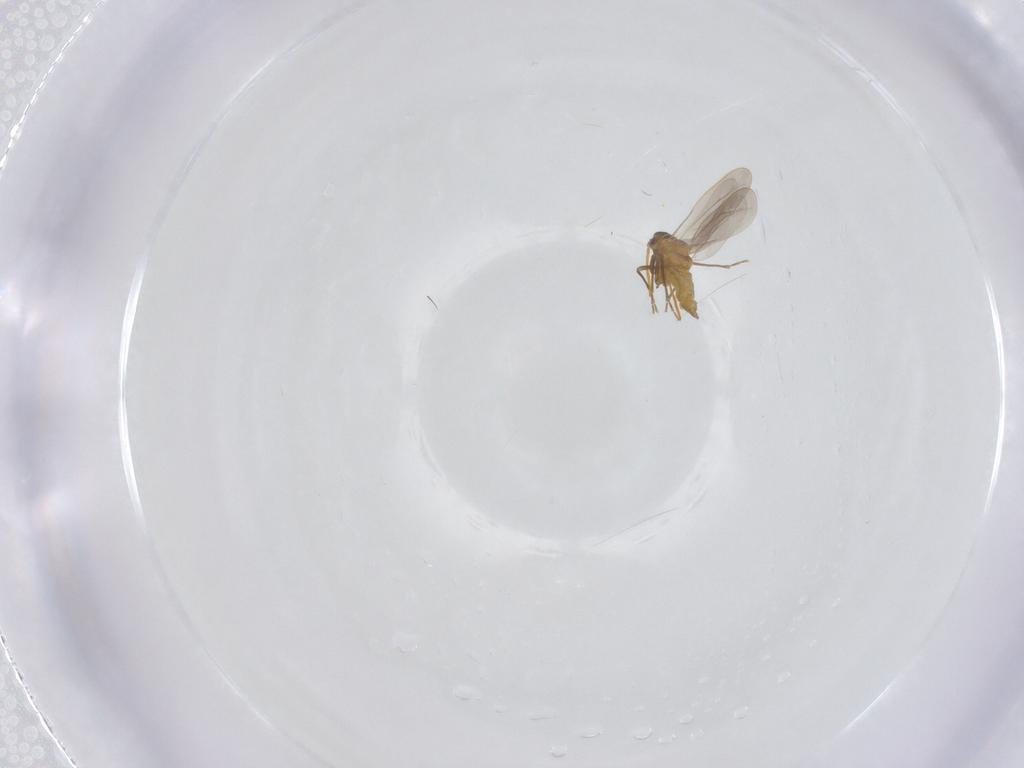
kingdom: Animalia
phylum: Arthropoda
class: Insecta
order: Hemiptera
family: Aleyrodidae
